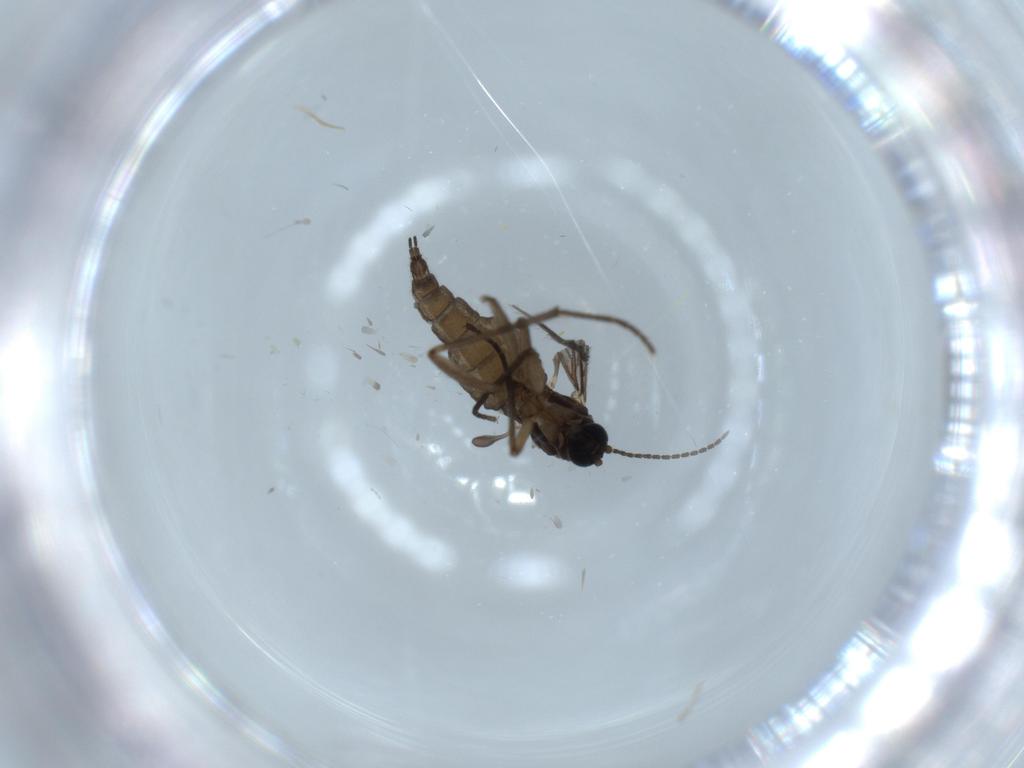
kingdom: Animalia
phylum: Arthropoda
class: Insecta
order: Diptera
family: Sciaridae
